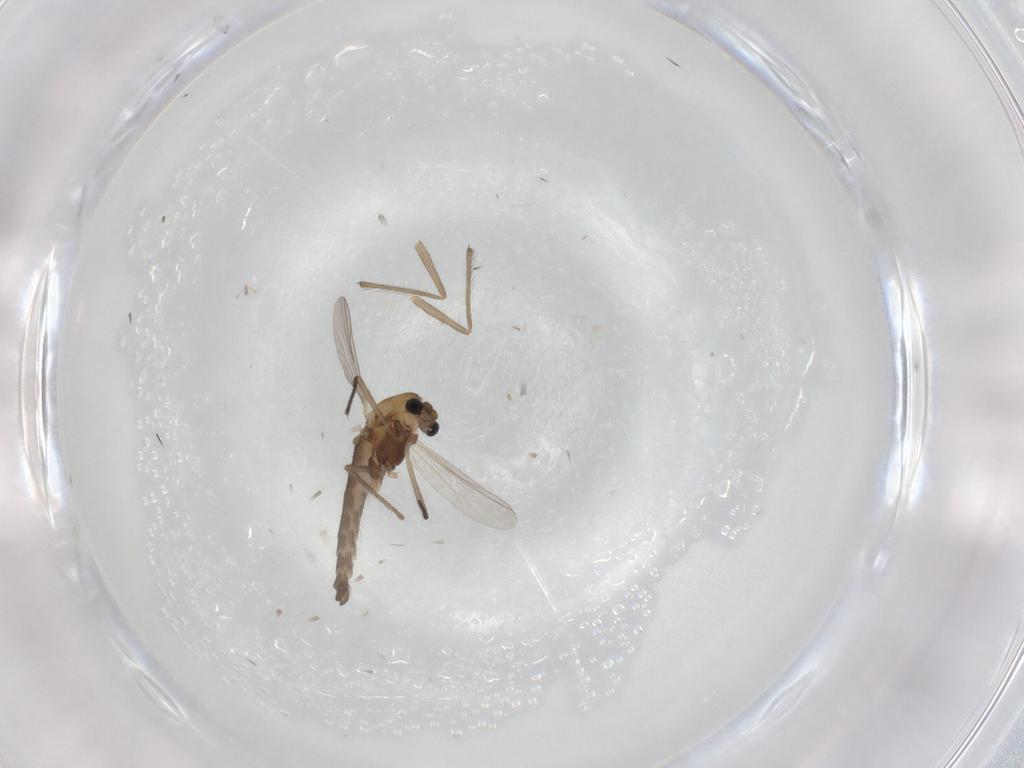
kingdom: Animalia
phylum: Arthropoda
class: Insecta
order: Diptera
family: Chironomidae
